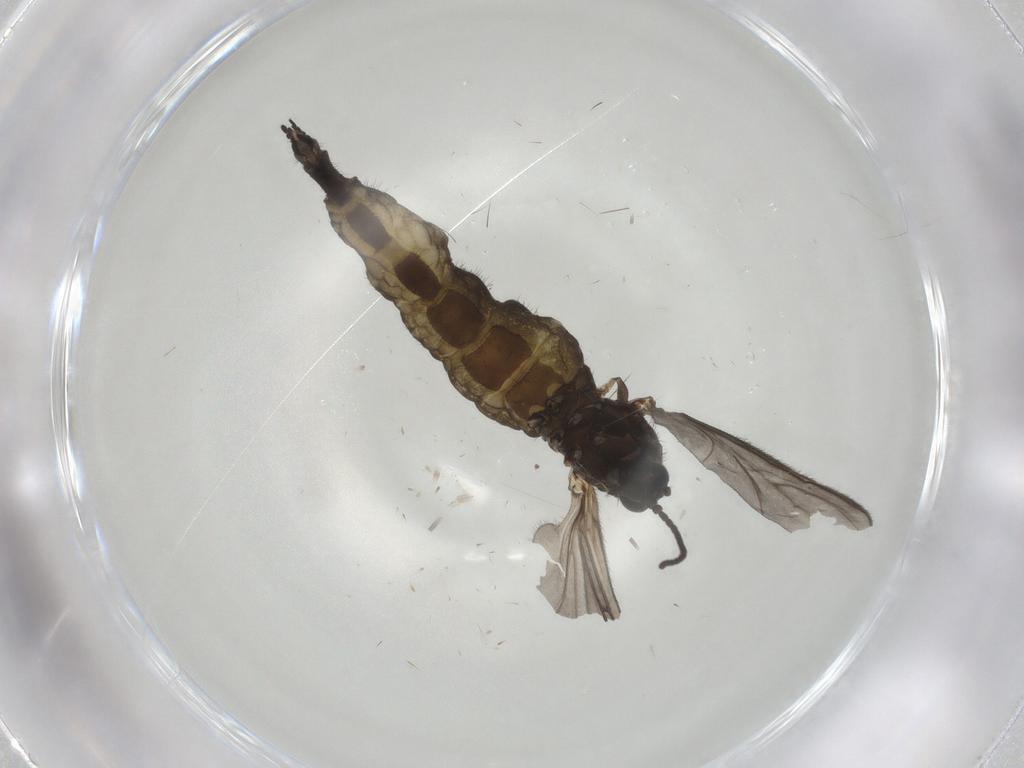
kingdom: Animalia
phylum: Arthropoda
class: Insecta
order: Diptera
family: Sciaridae
